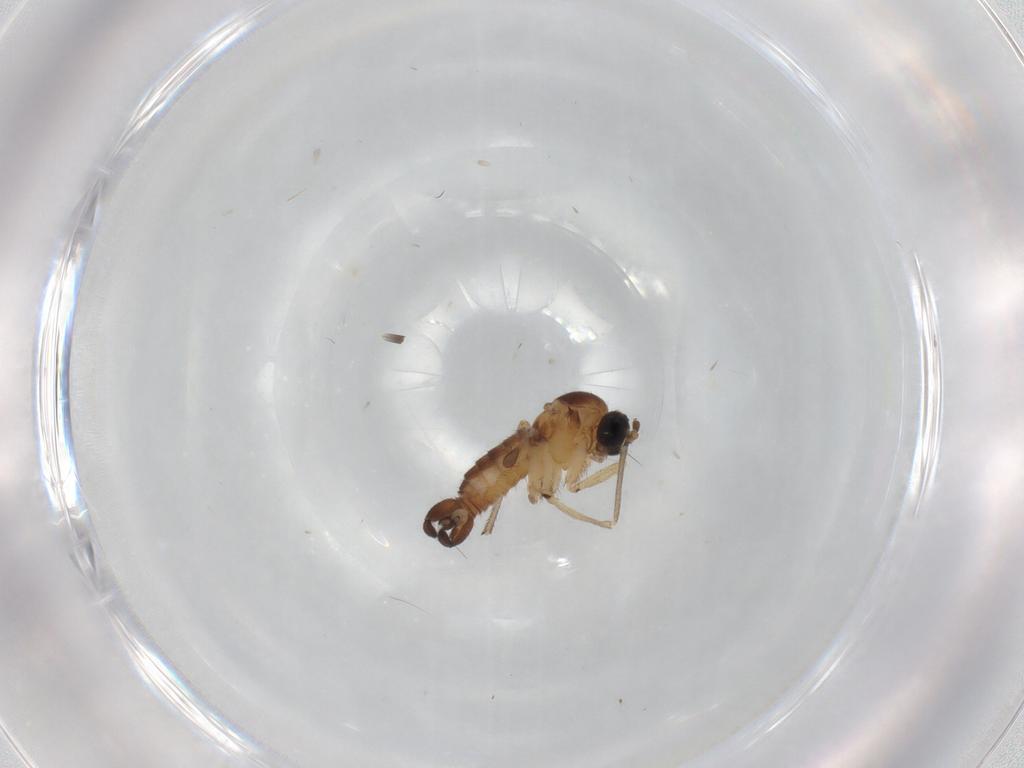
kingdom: Animalia
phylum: Arthropoda
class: Insecta
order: Diptera
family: Sciaridae
